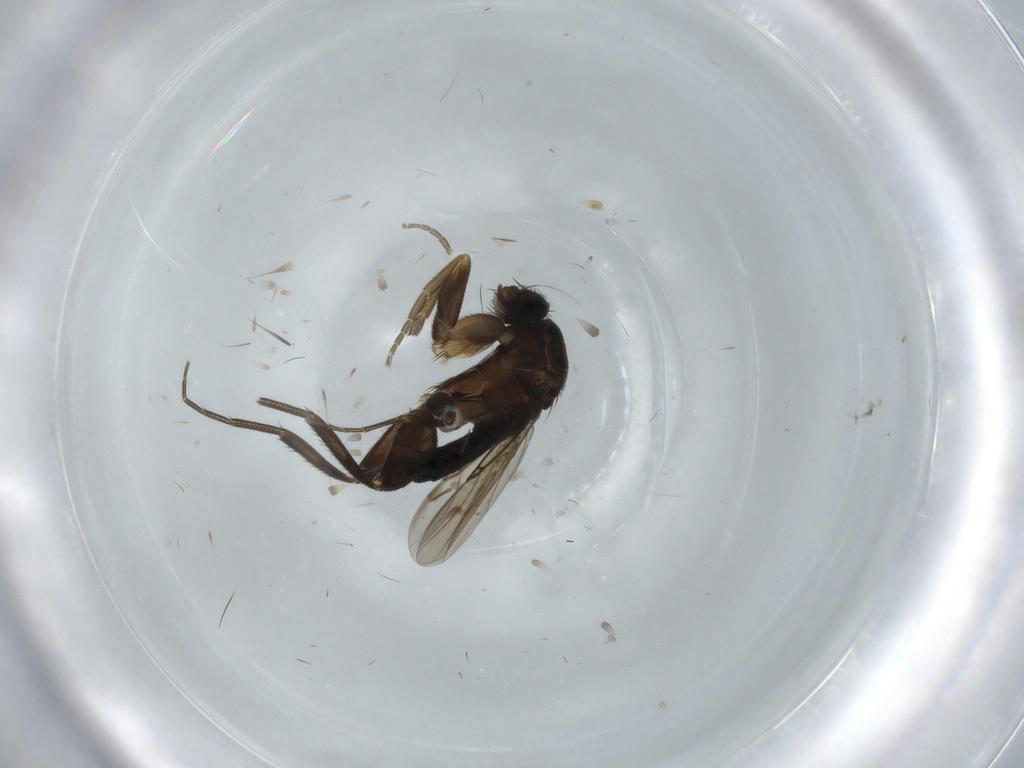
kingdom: Animalia
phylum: Arthropoda
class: Insecta
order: Diptera
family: Phoridae
